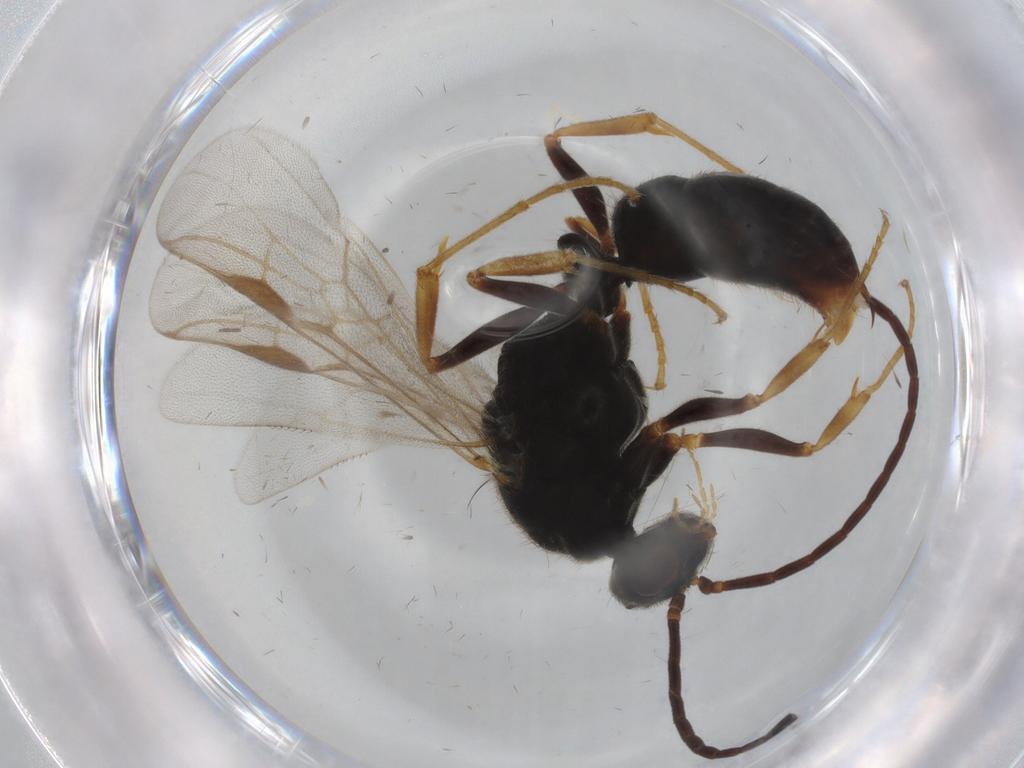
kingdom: Animalia
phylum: Arthropoda
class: Insecta
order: Hymenoptera
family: Formicidae
